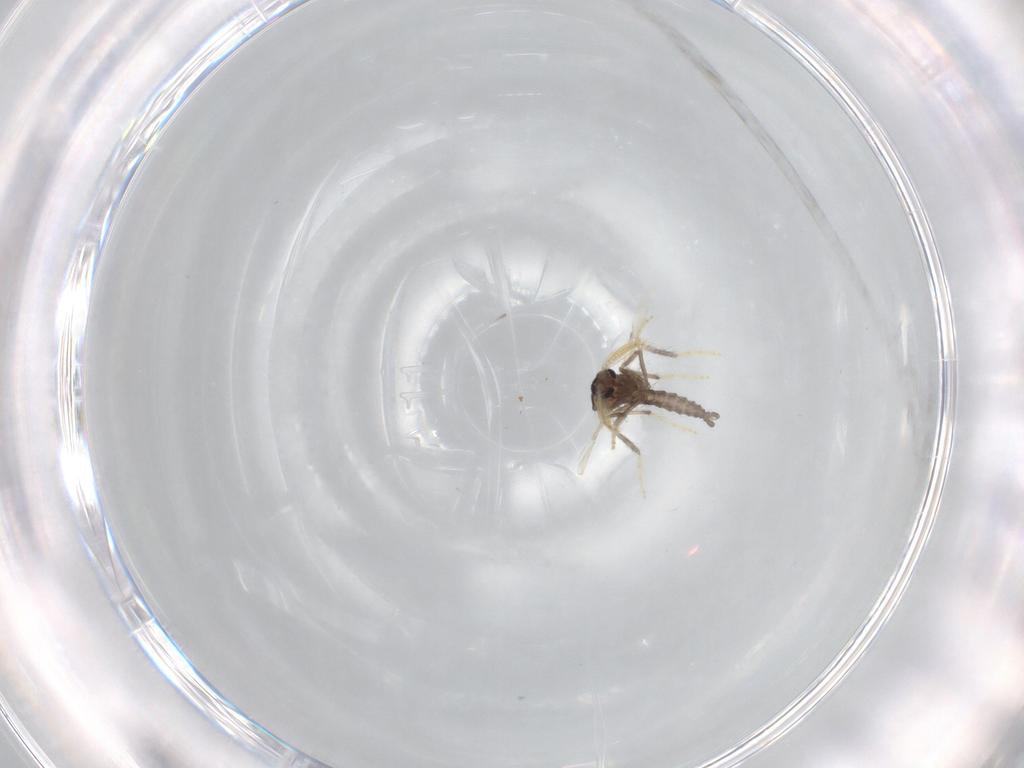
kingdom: Animalia
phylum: Arthropoda
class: Insecta
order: Diptera
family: Ceratopogonidae
